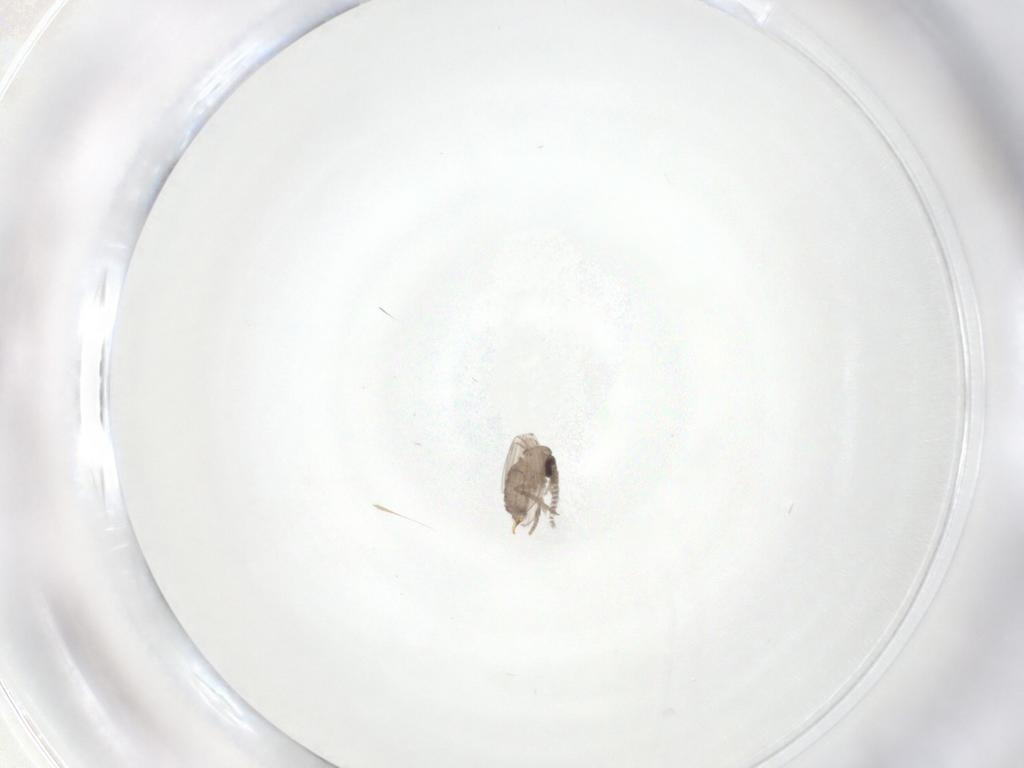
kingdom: Animalia
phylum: Arthropoda
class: Insecta
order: Diptera
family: Psychodidae
